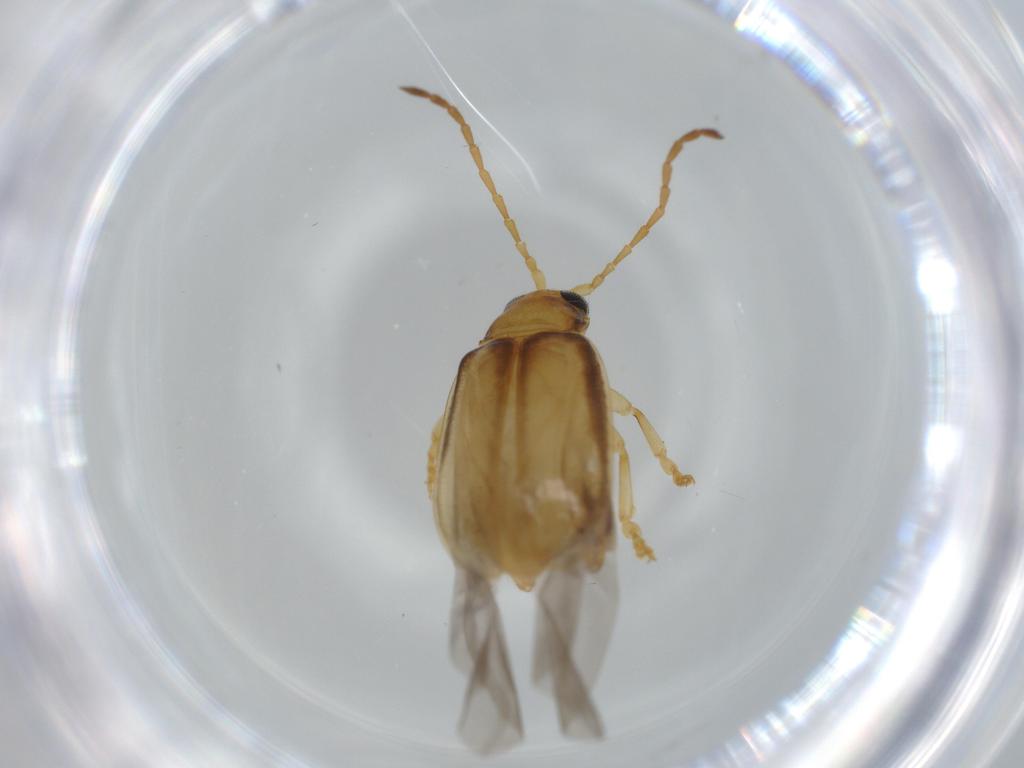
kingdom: Animalia
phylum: Arthropoda
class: Insecta
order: Coleoptera
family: Chrysomelidae
